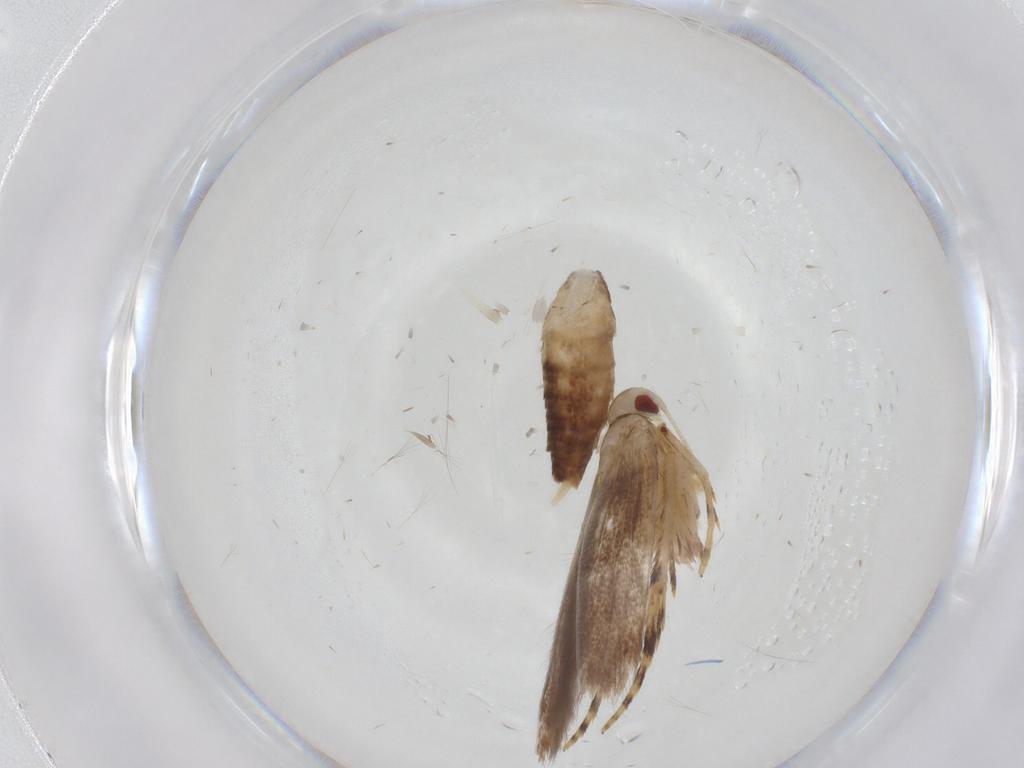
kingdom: Animalia
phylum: Arthropoda
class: Insecta
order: Lepidoptera
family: Cosmopterigidae
